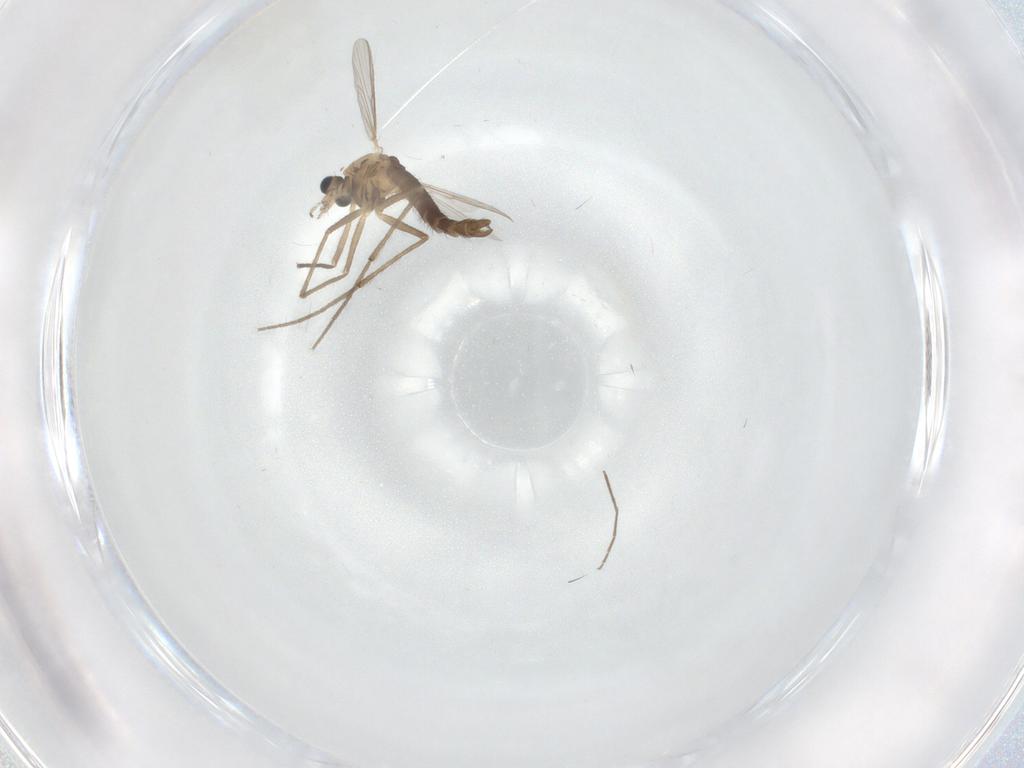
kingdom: Animalia
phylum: Arthropoda
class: Insecta
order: Diptera
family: Chironomidae
